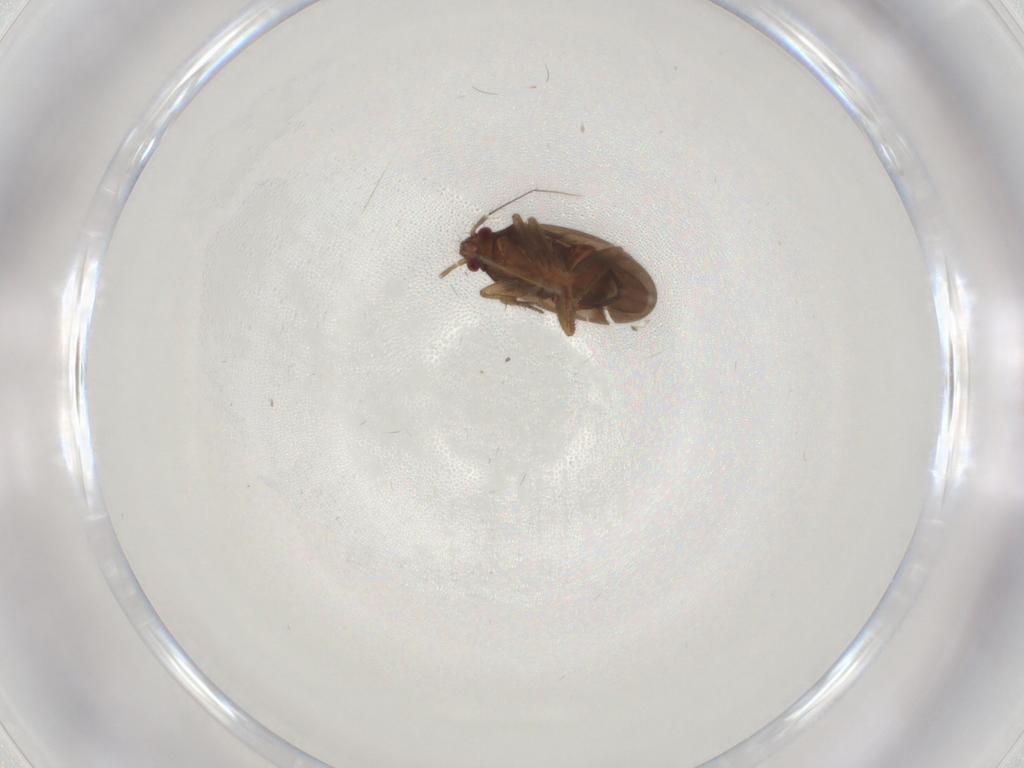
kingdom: Animalia
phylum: Arthropoda
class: Insecta
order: Hemiptera
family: Ceratocombidae
